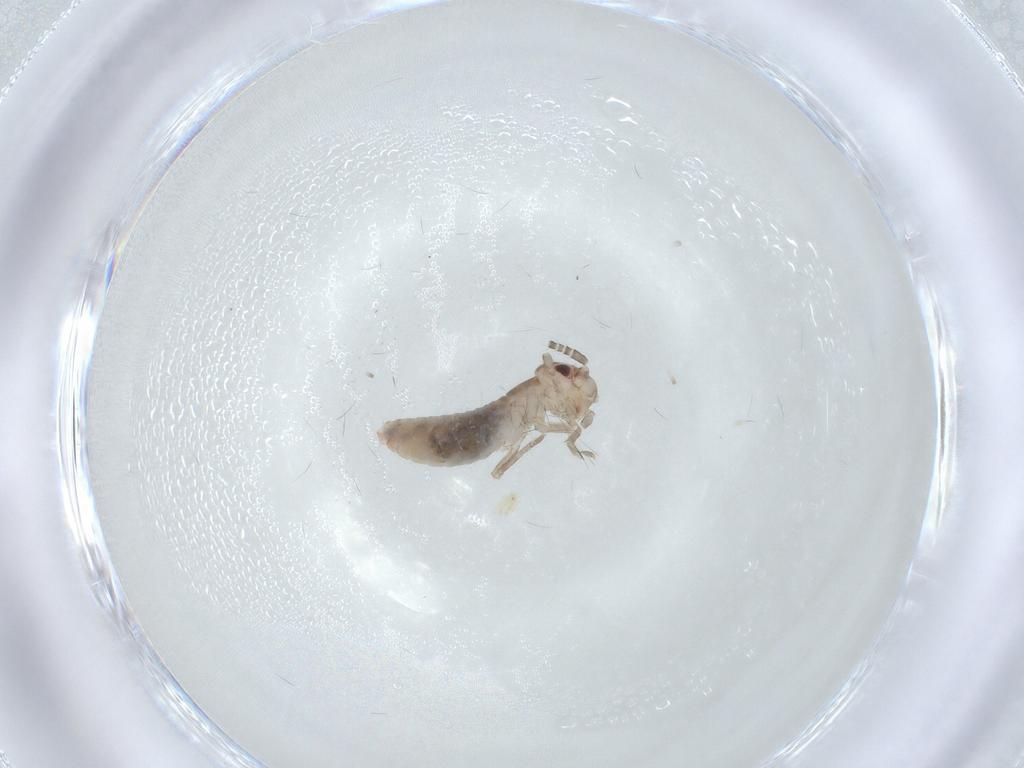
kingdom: Animalia
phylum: Arthropoda
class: Insecta
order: Orthoptera
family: Mogoplistidae
